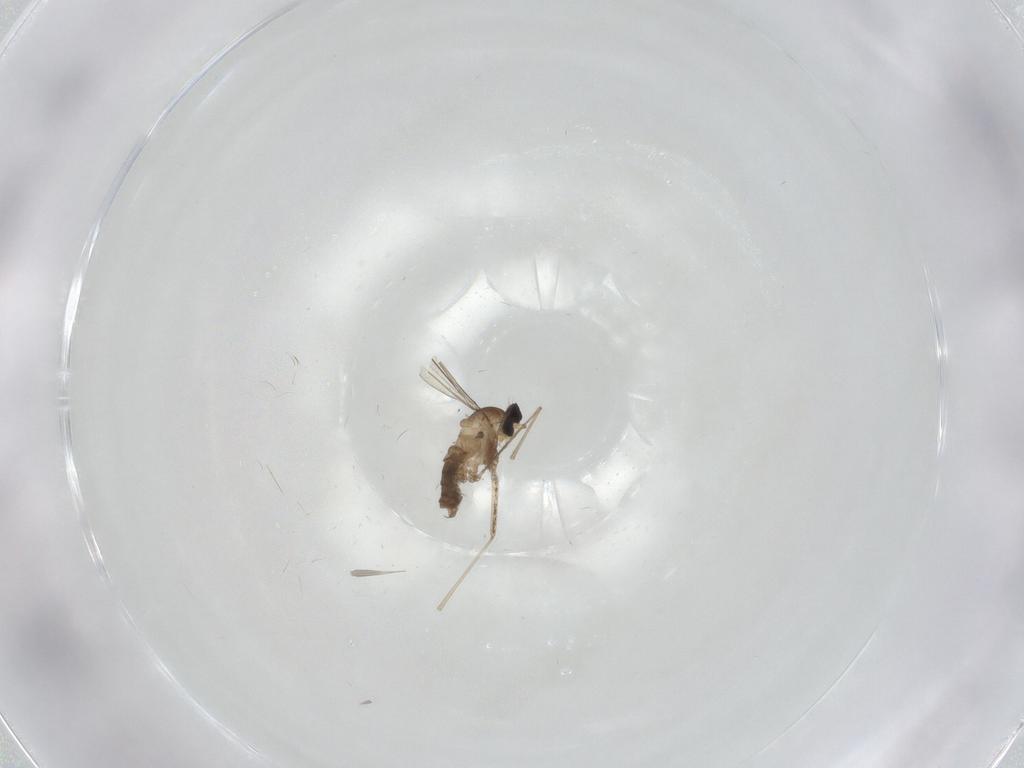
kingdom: Animalia
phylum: Arthropoda
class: Insecta
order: Diptera
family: Cecidomyiidae
